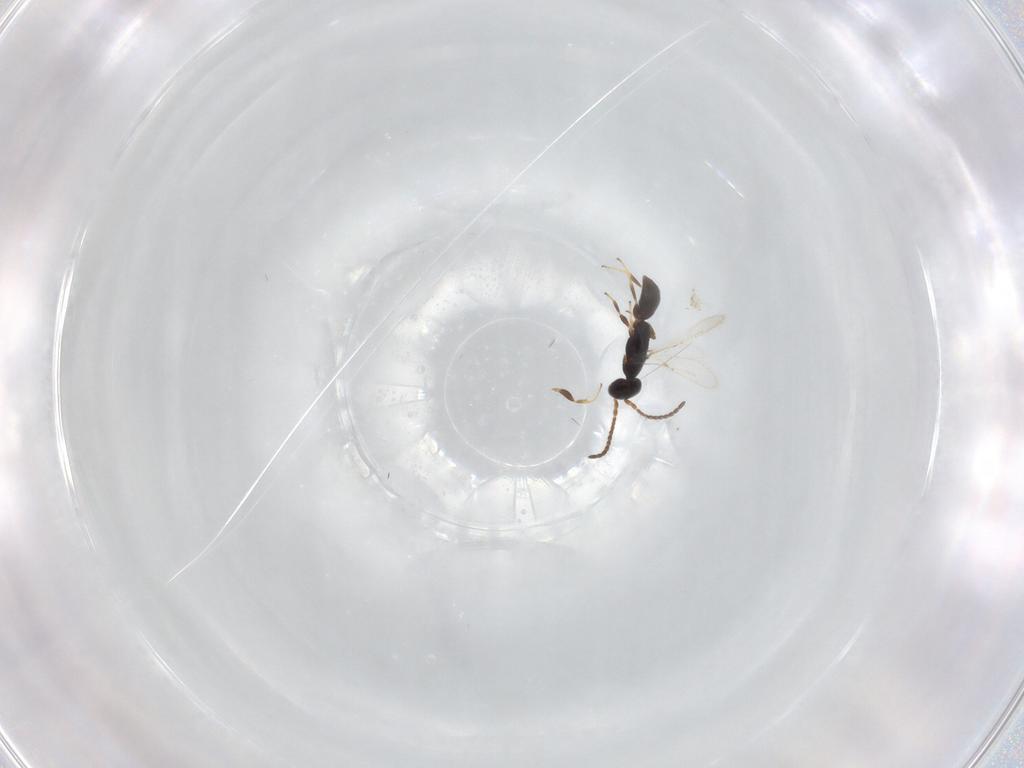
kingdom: Animalia
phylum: Arthropoda
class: Insecta
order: Hymenoptera
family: Bethylidae
